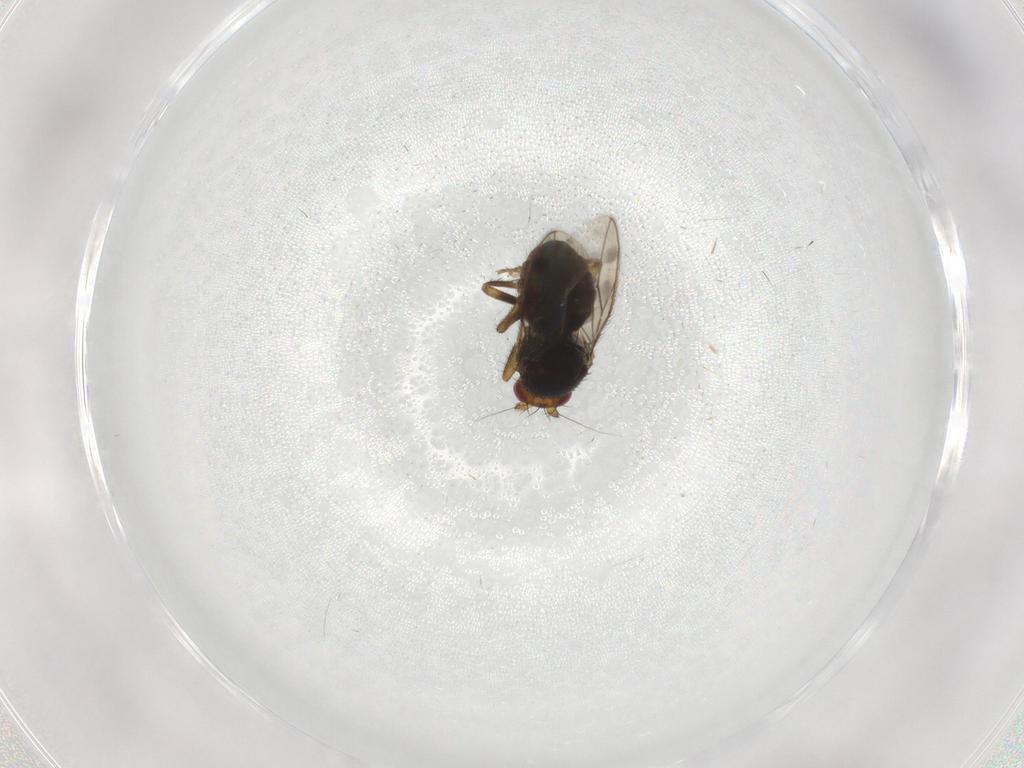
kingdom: Animalia
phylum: Arthropoda
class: Insecta
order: Diptera
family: Sphaeroceridae
